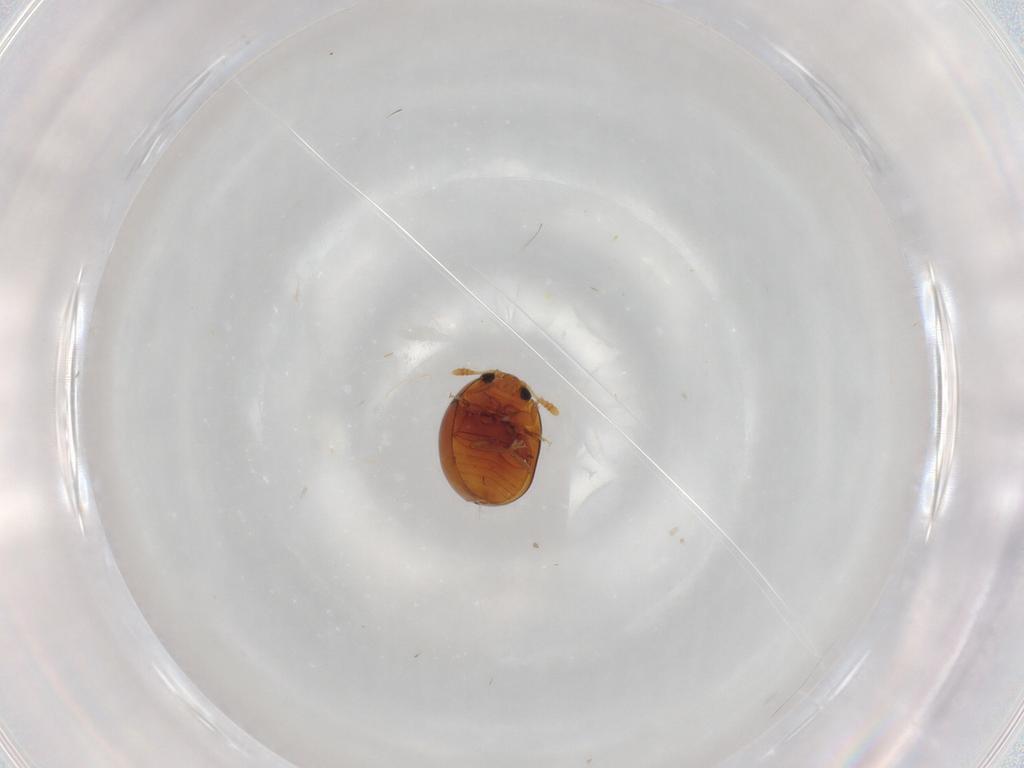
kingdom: Animalia
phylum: Arthropoda
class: Insecta
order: Coleoptera
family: Phalacridae
